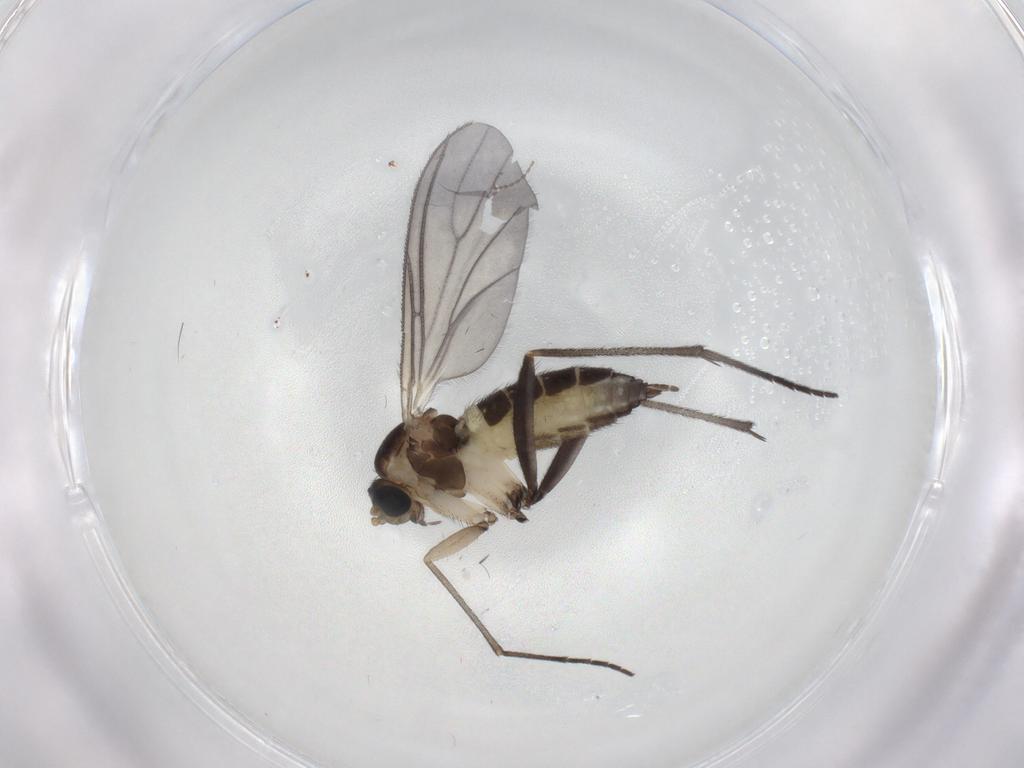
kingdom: Animalia
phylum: Arthropoda
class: Insecta
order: Diptera
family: Sciaridae
